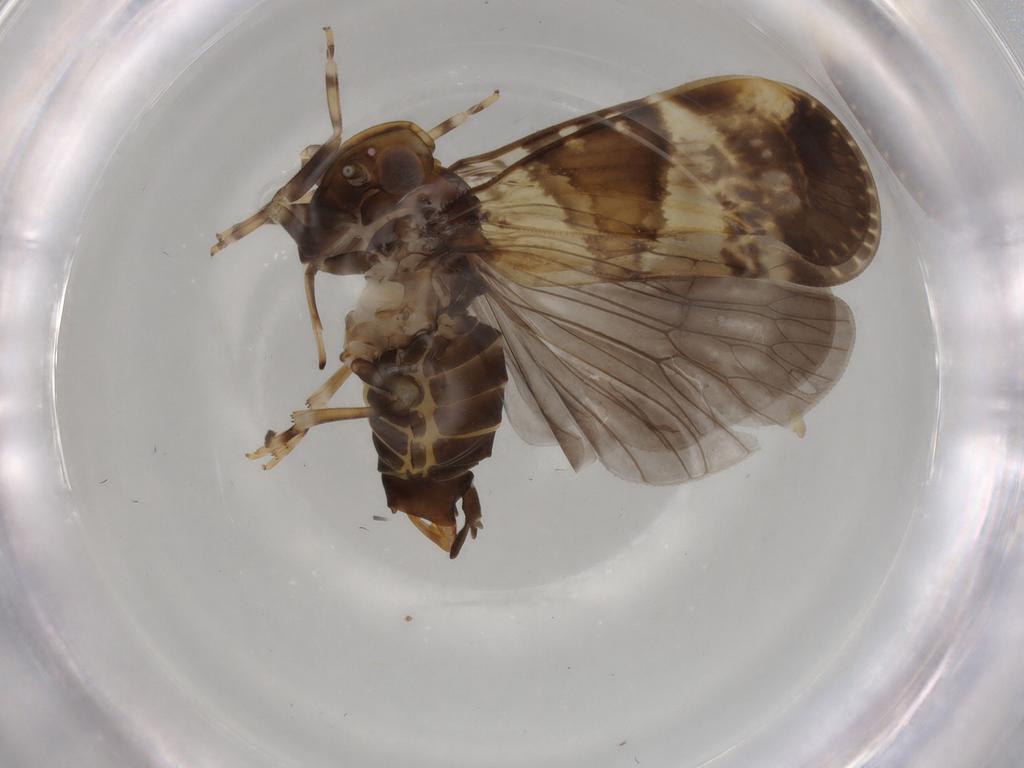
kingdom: Animalia
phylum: Arthropoda
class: Insecta
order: Hemiptera
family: Cixiidae
